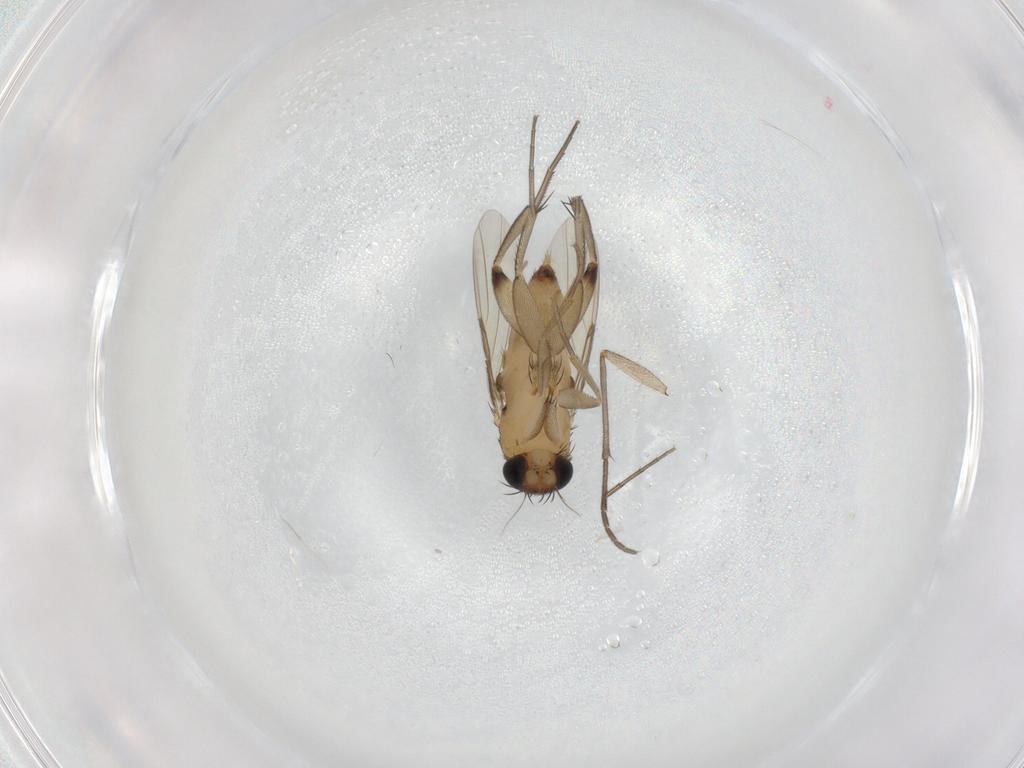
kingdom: Animalia
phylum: Arthropoda
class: Insecta
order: Diptera
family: Phoridae
